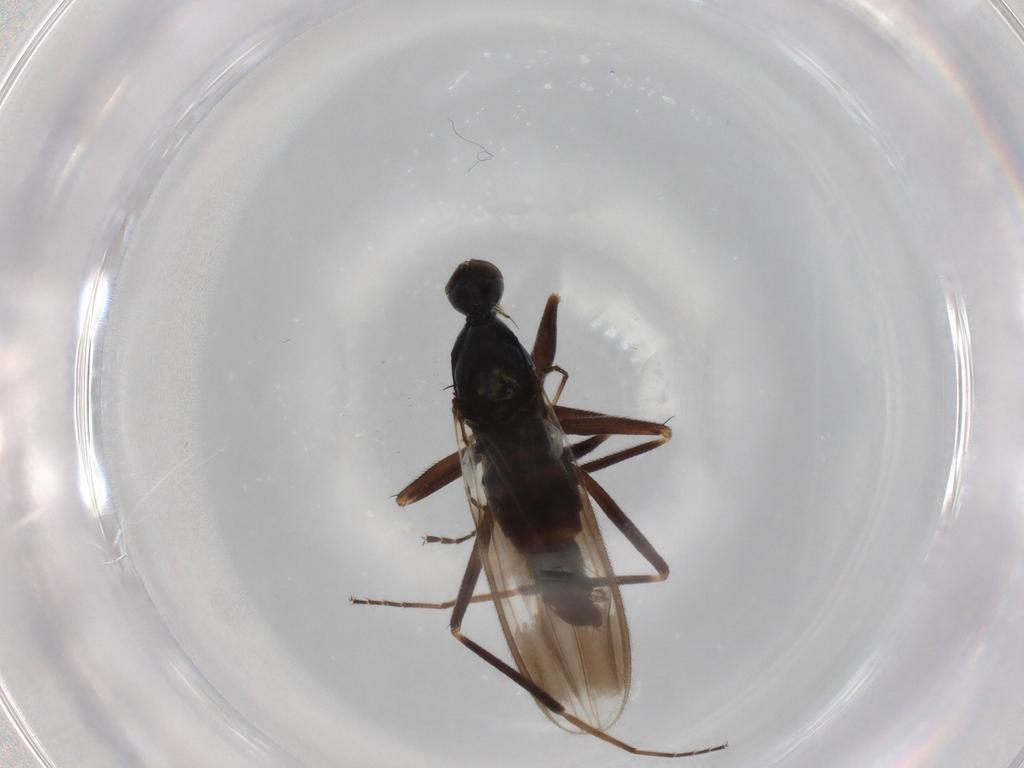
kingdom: Animalia
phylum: Arthropoda
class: Insecta
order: Diptera
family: Hybotidae
